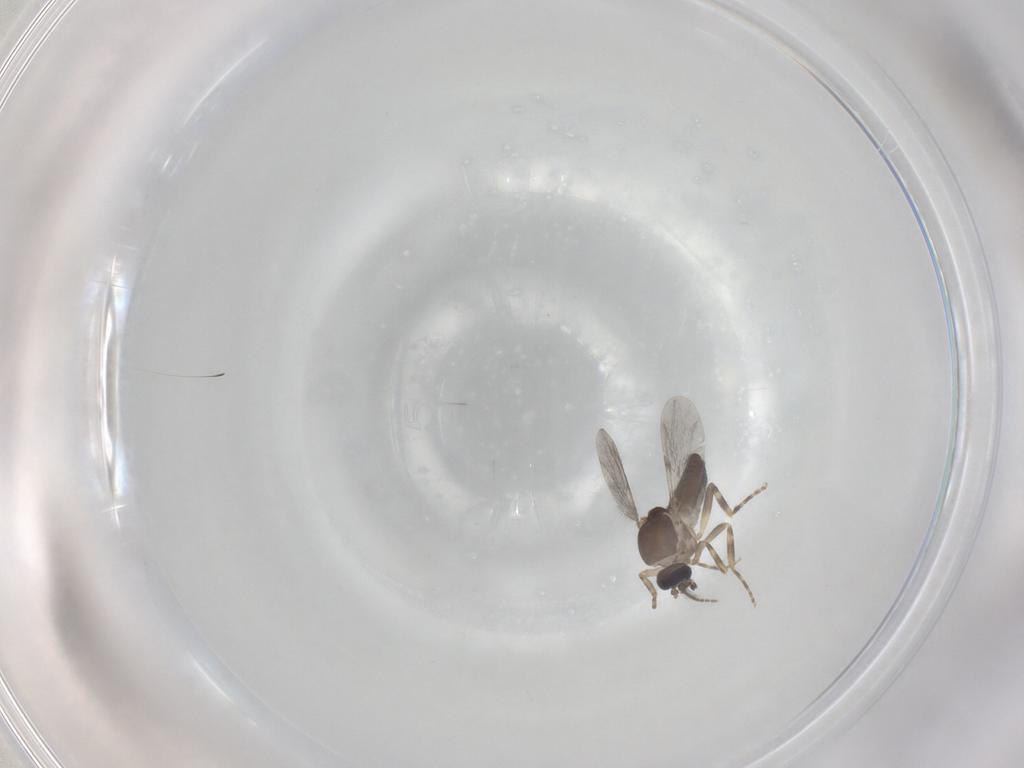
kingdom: Animalia
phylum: Arthropoda
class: Insecta
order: Diptera
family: Ceratopogonidae
